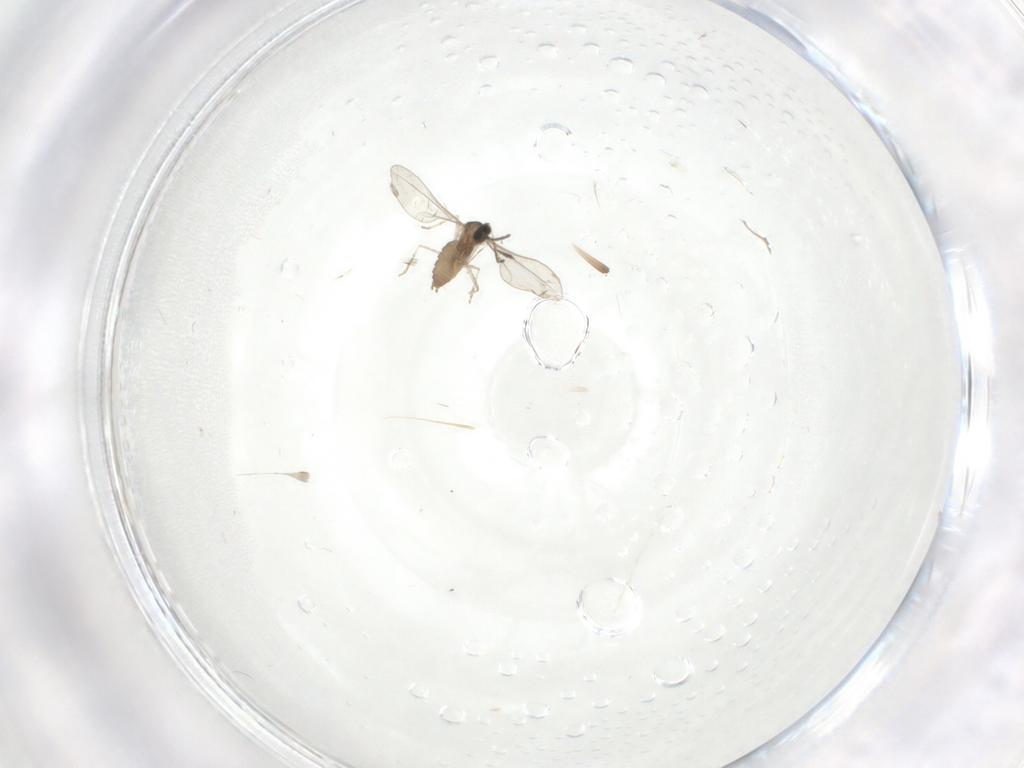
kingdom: Animalia
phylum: Arthropoda
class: Insecta
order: Diptera
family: Cecidomyiidae
